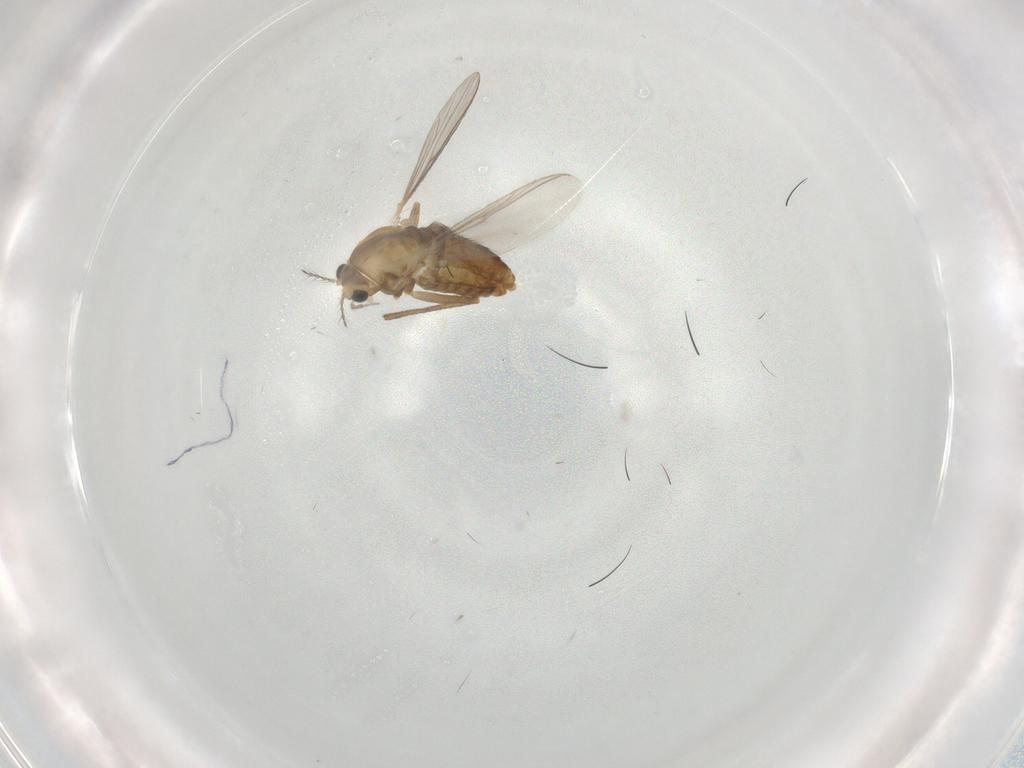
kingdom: Animalia
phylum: Arthropoda
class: Insecta
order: Diptera
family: Chironomidae
